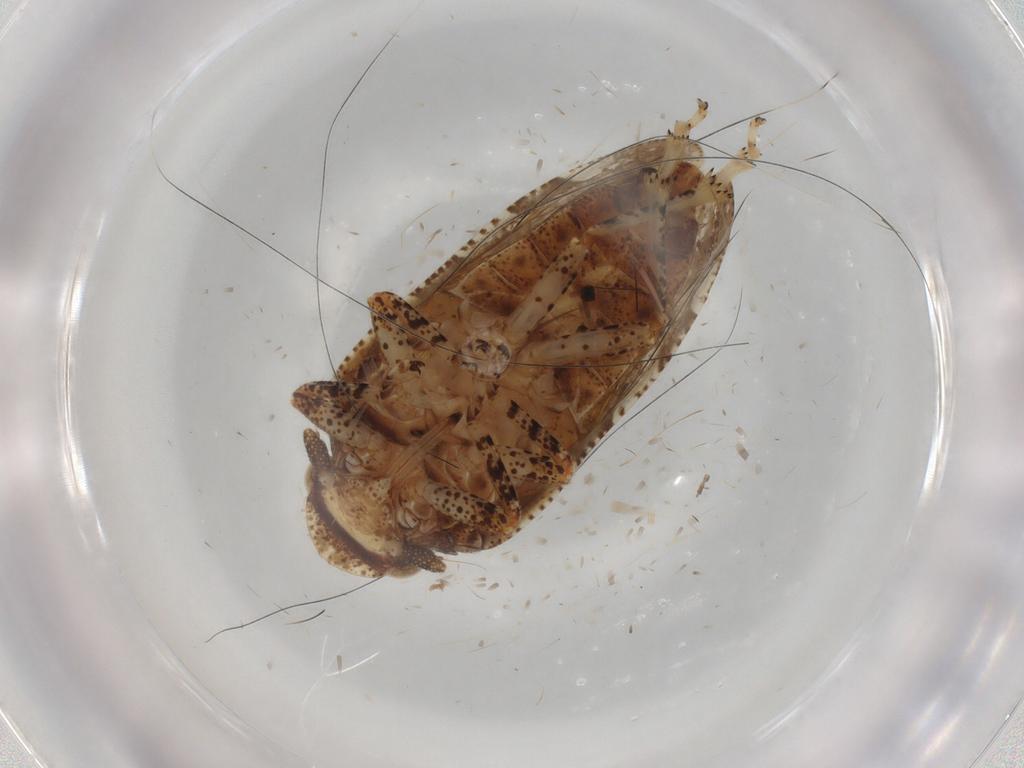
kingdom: Animalia
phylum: Arthropoda
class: Insecta
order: Hemiptera
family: Tettigometridae
